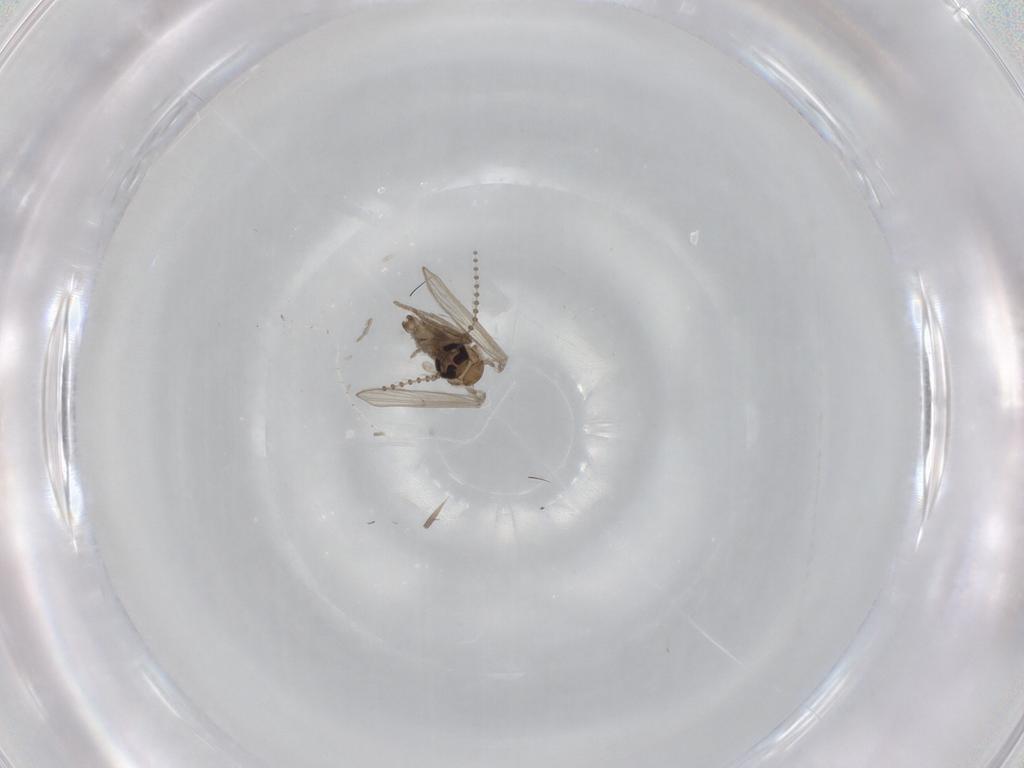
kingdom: Animalia
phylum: Arthropoda
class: Insecta
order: Diptera
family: Psychodidae
